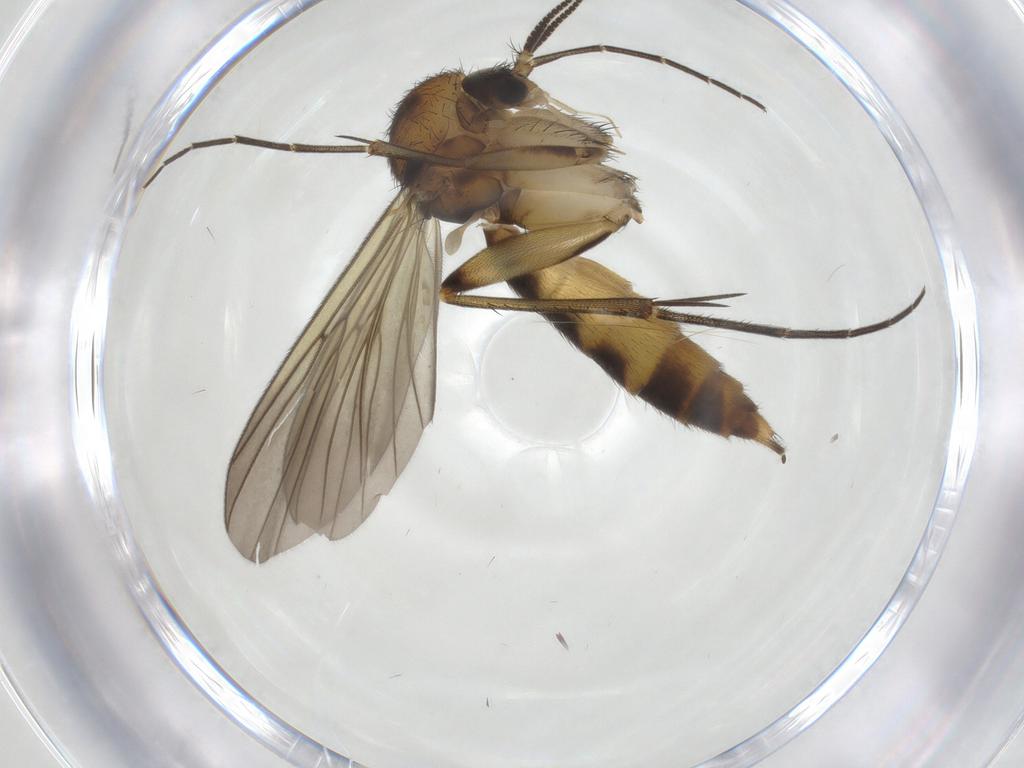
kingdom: Animalia
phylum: Arthropoda
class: Insecta
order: Diptera
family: Mycetophilidae
